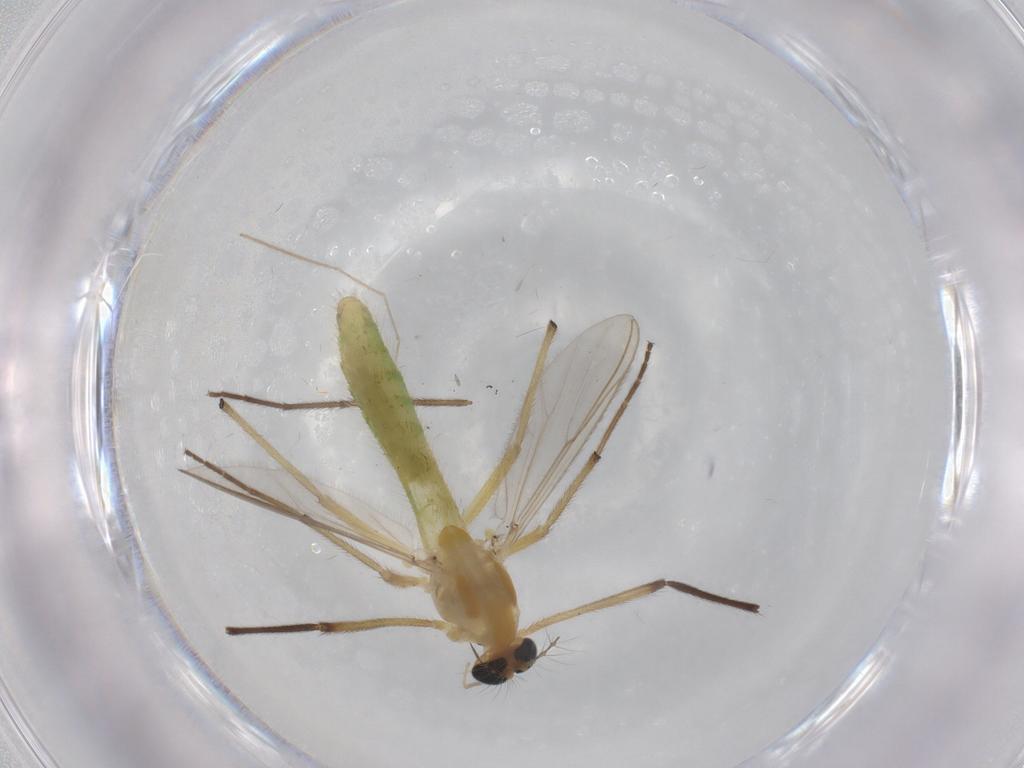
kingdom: Animalia
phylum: Arthropoda
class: Insecta
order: Diptera
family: Chironomidae
